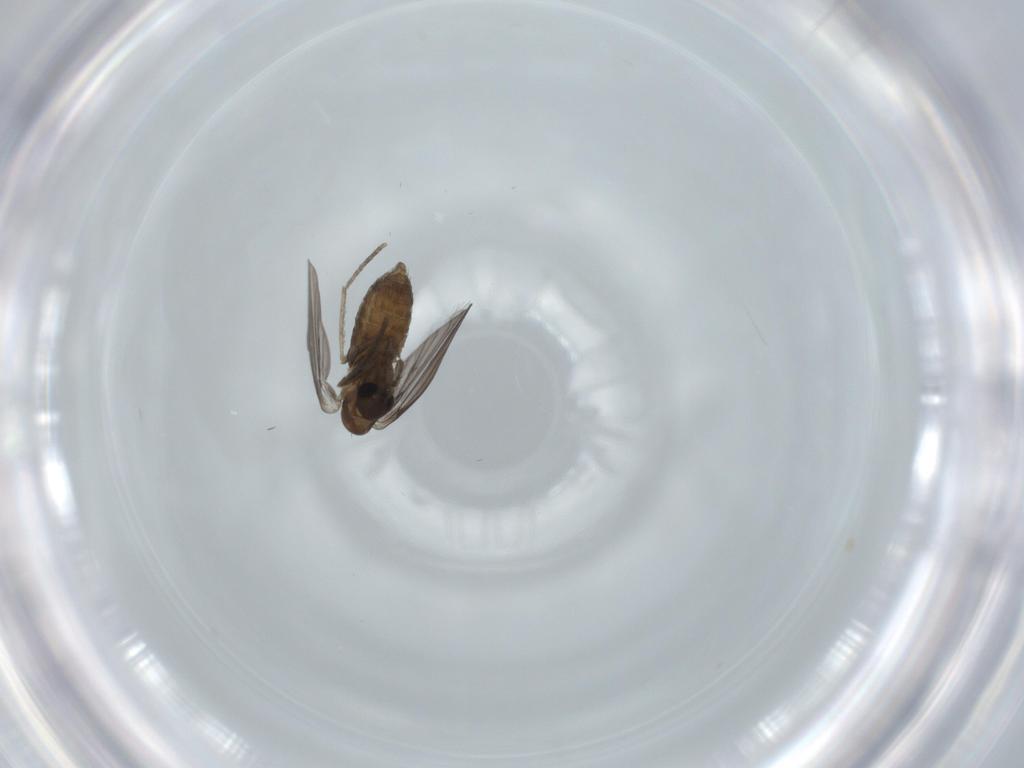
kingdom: Animalia
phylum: Arthropoda
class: Insecta
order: Diptera
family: Psychodidae
